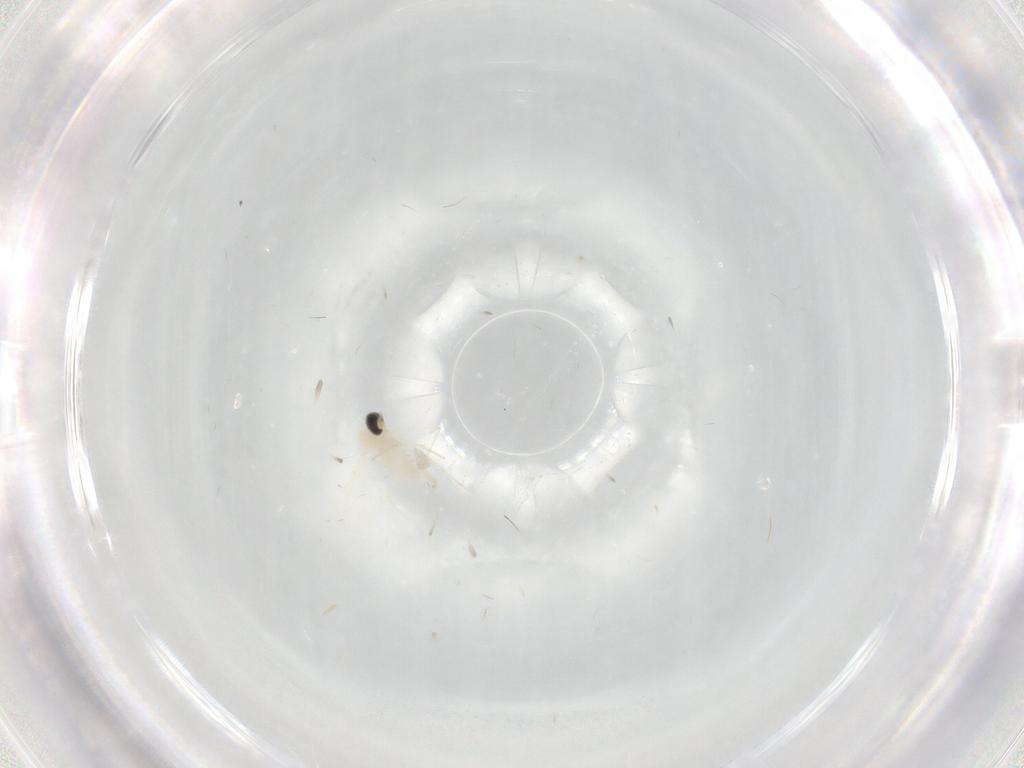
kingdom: Animalia
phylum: Arthropoda
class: Insecta
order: Diptera
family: Cecidomyiidae
